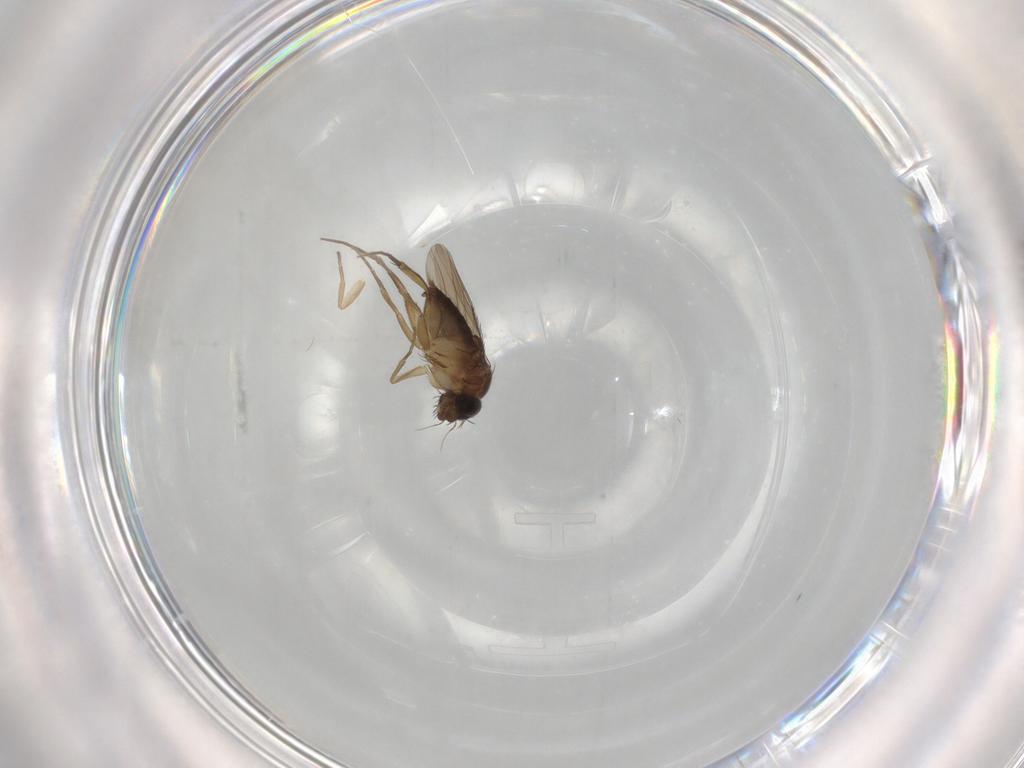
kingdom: Animalia
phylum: Arthropoda
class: Insecta
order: Diptera
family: Phoridae
